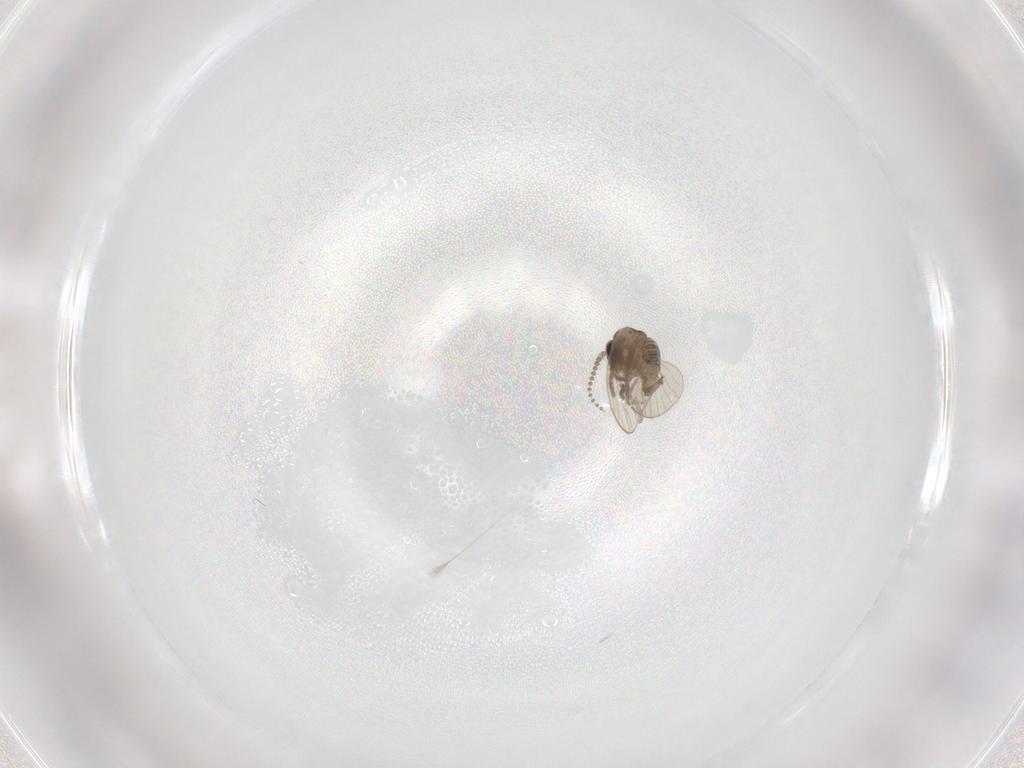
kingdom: Animalia
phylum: Arthropoda
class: Insecta
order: Diptera
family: Psychodidae
